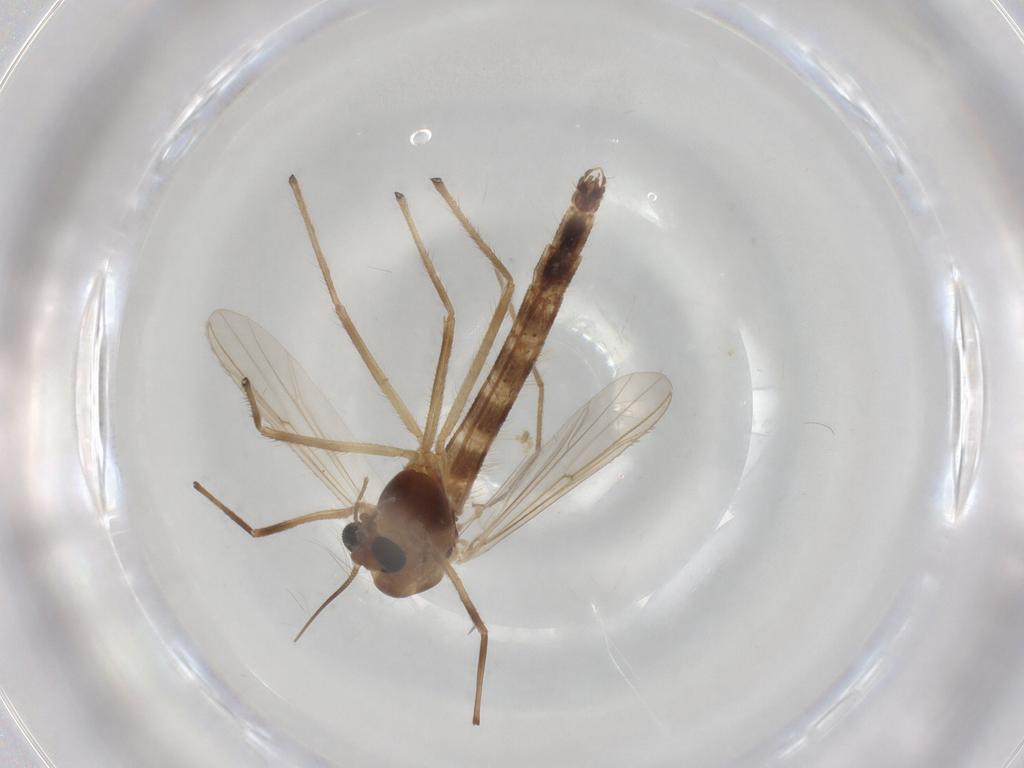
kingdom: Animalia
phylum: Arthropoda
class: Insecta
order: Diptera
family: Chironomidae
